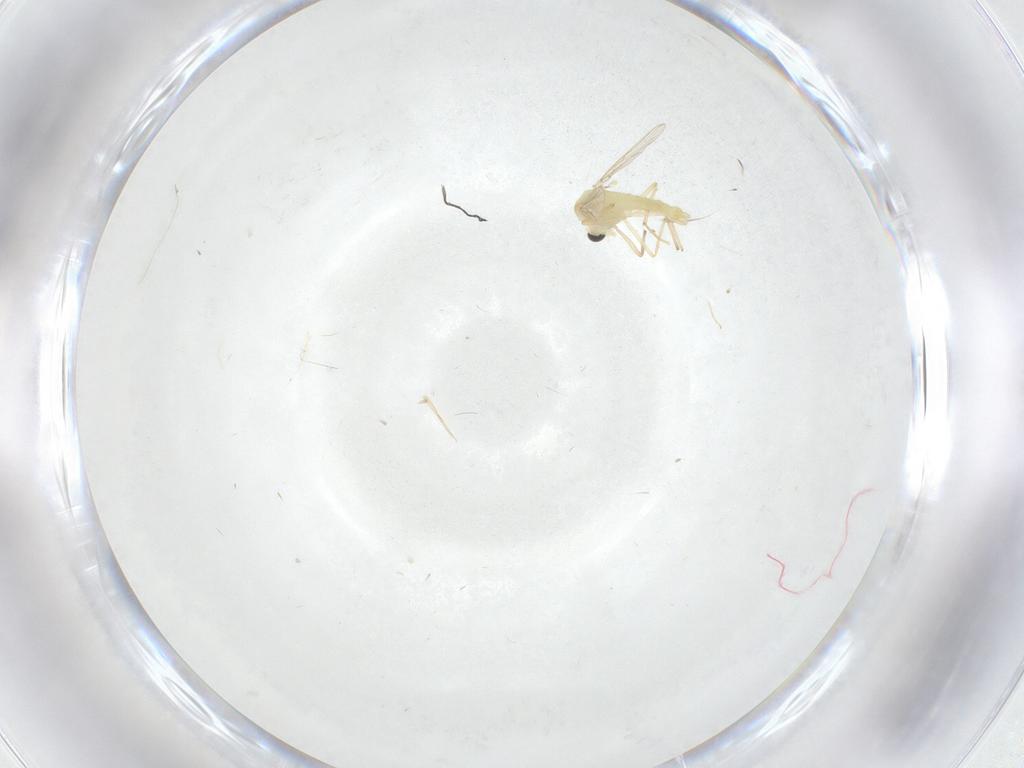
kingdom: Animalia
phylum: Arthropoda
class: Insecta
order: Diptera
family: Chironomidae
